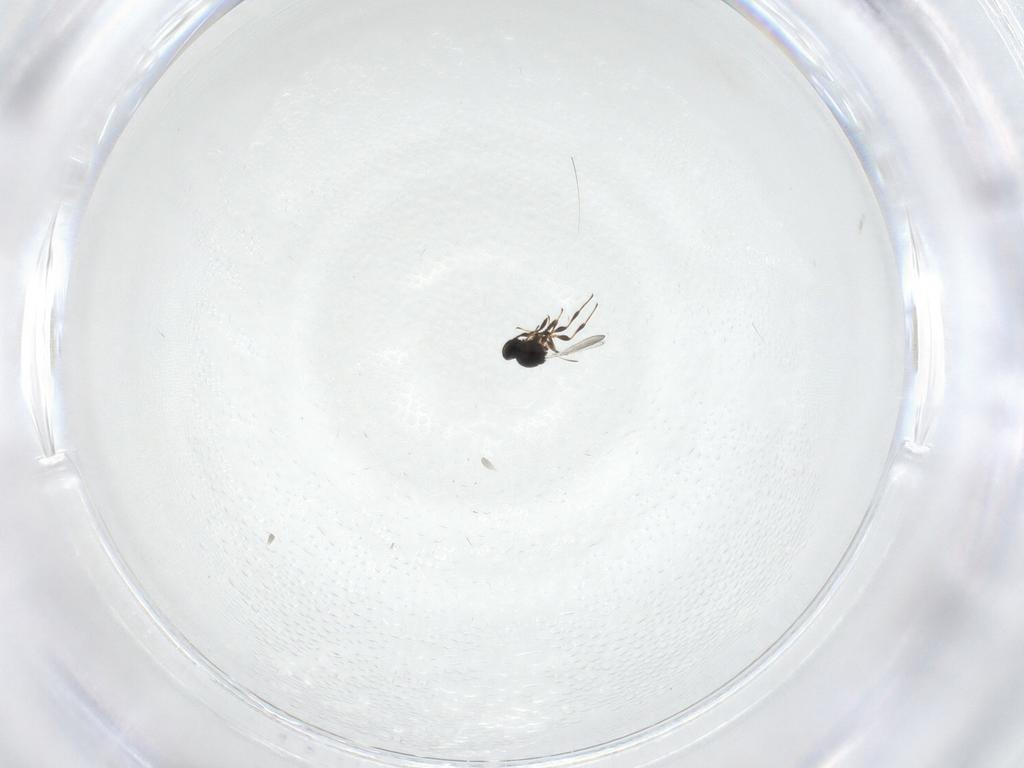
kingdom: Animalia
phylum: Arthropoda
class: Insecta
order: Hymenoptera
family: Platygastridae
